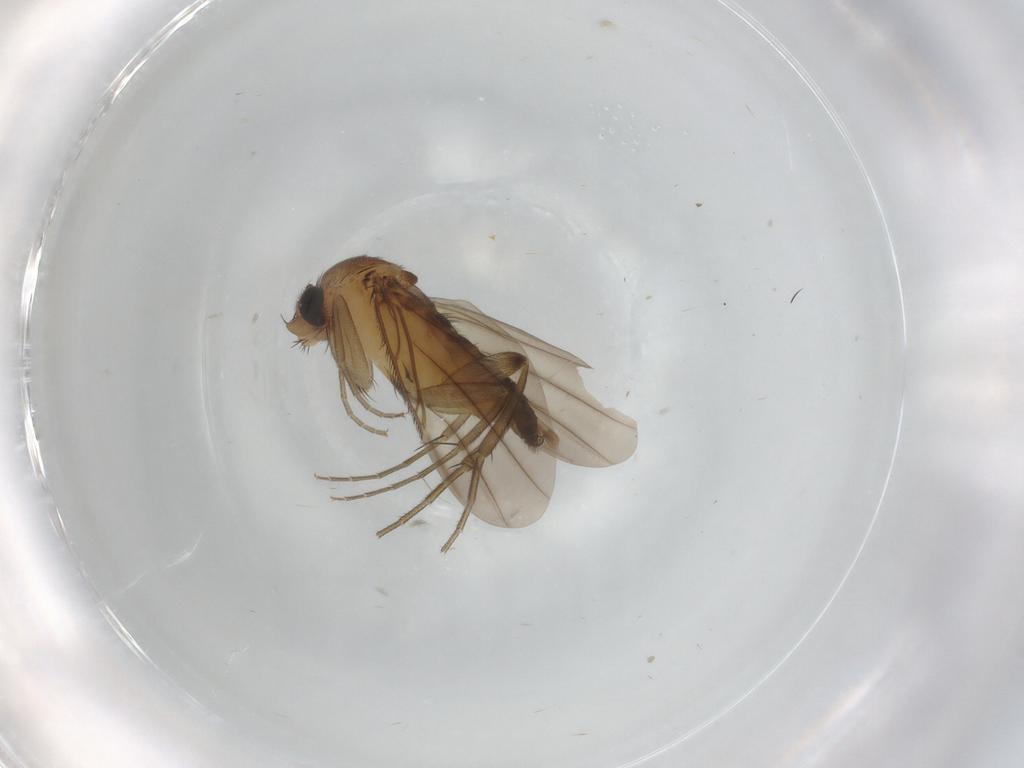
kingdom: Animalia
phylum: Arthropoda
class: Insecta
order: Diptera
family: Phoridae
